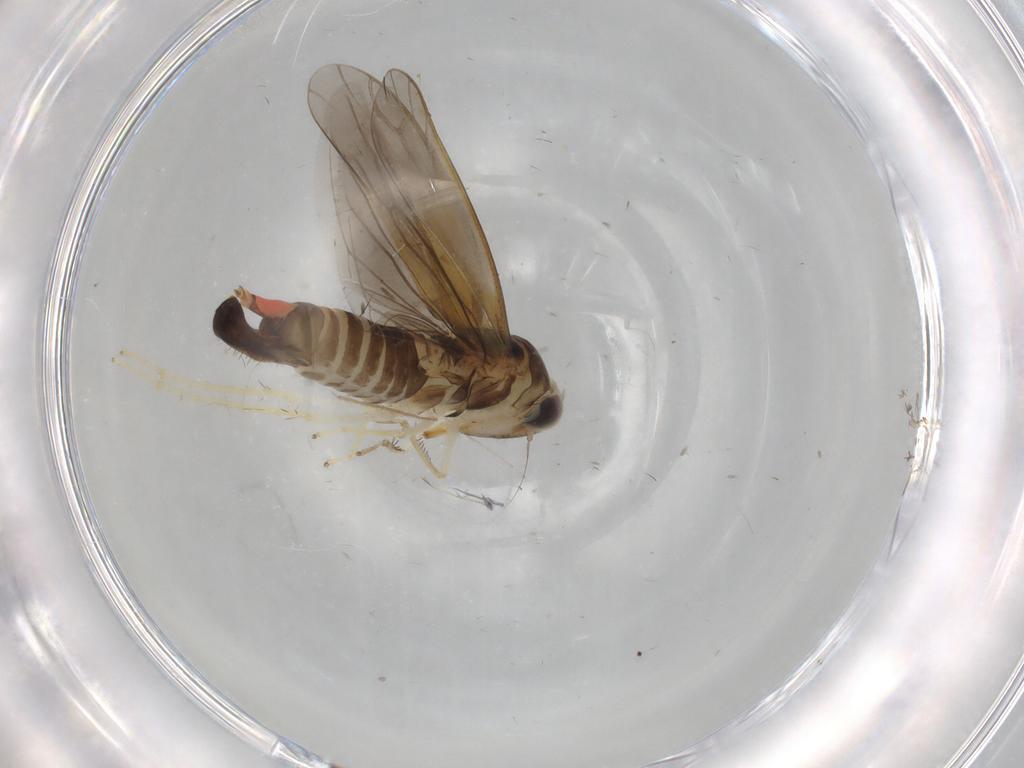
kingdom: Animalia
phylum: Arthropoda
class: Insecta
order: Hemiptera
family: Cicadellidae
